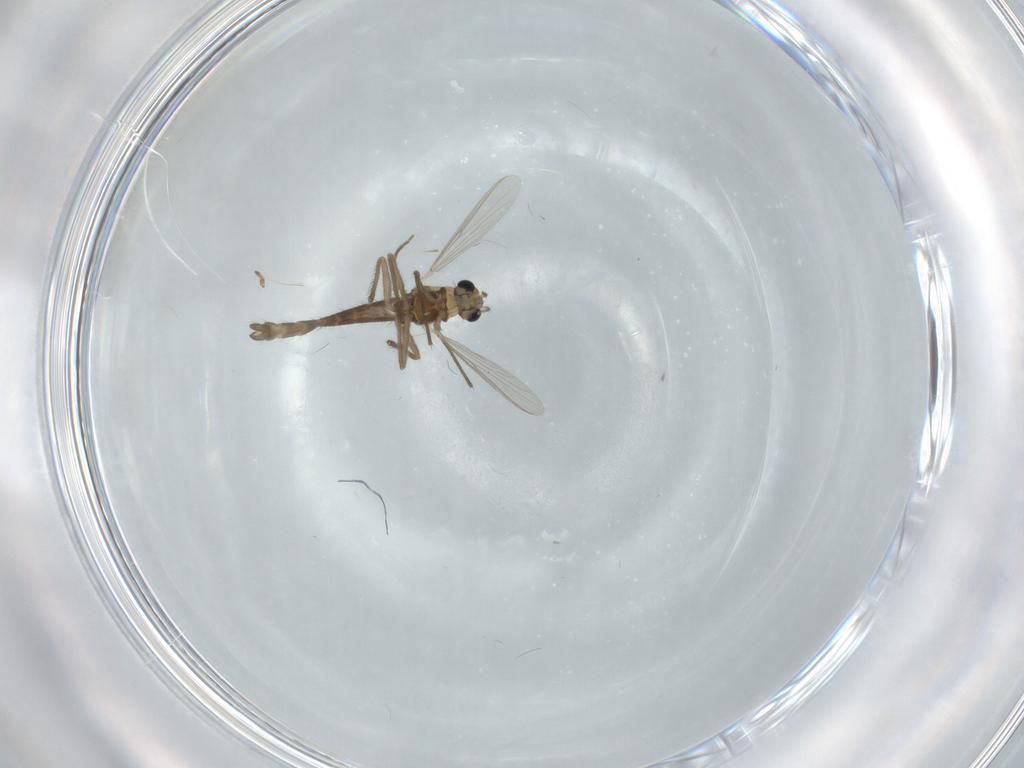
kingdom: Animalia
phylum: Arthropoda
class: Insecta
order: Diptera
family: Chironomidae
